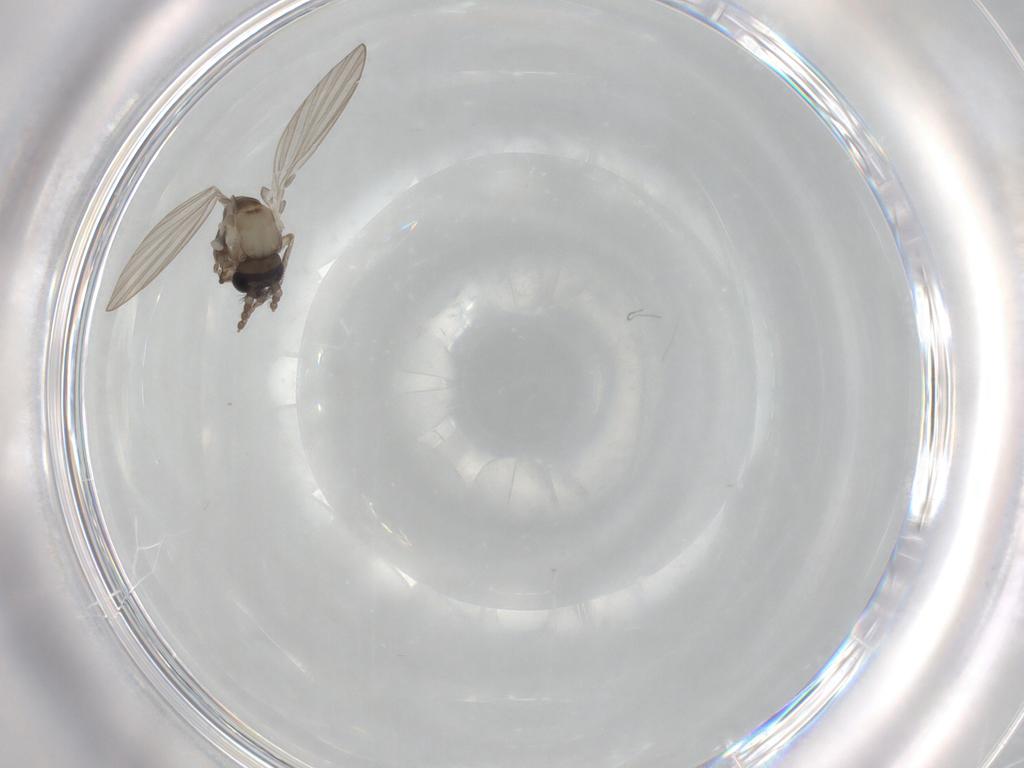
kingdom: Animalia
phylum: Arthropoda
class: Insecta
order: Diptera
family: Psychodidae
